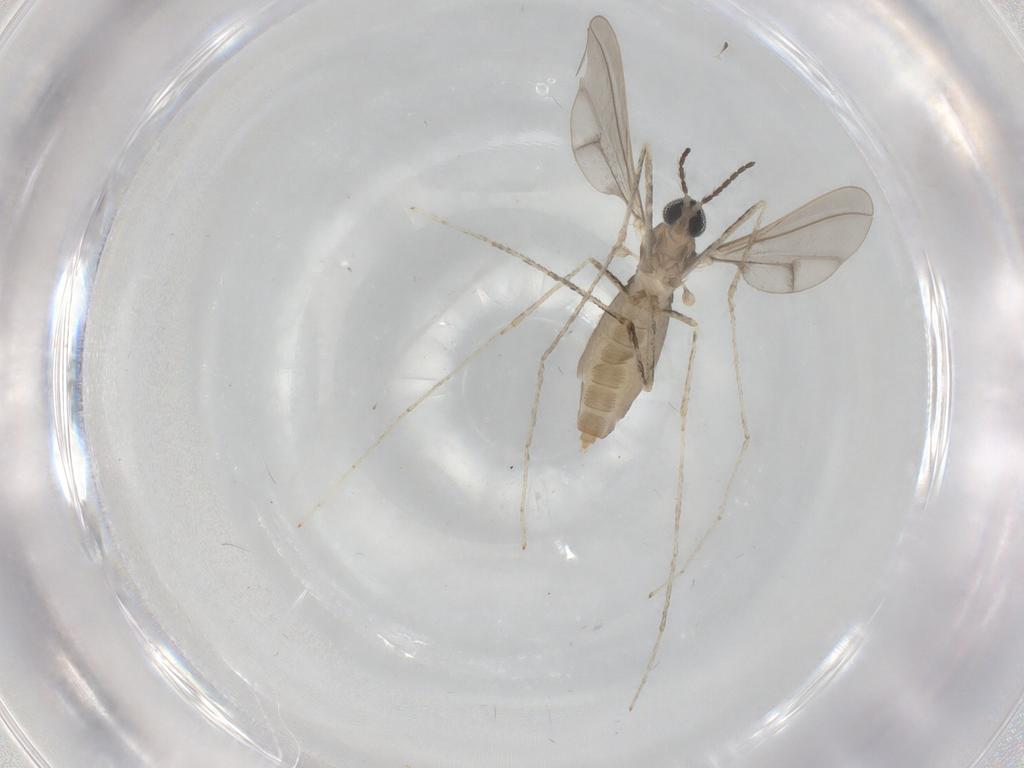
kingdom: Animalia
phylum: Arthropoda
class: Insecta
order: Diptera
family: Cecidomyiidae
